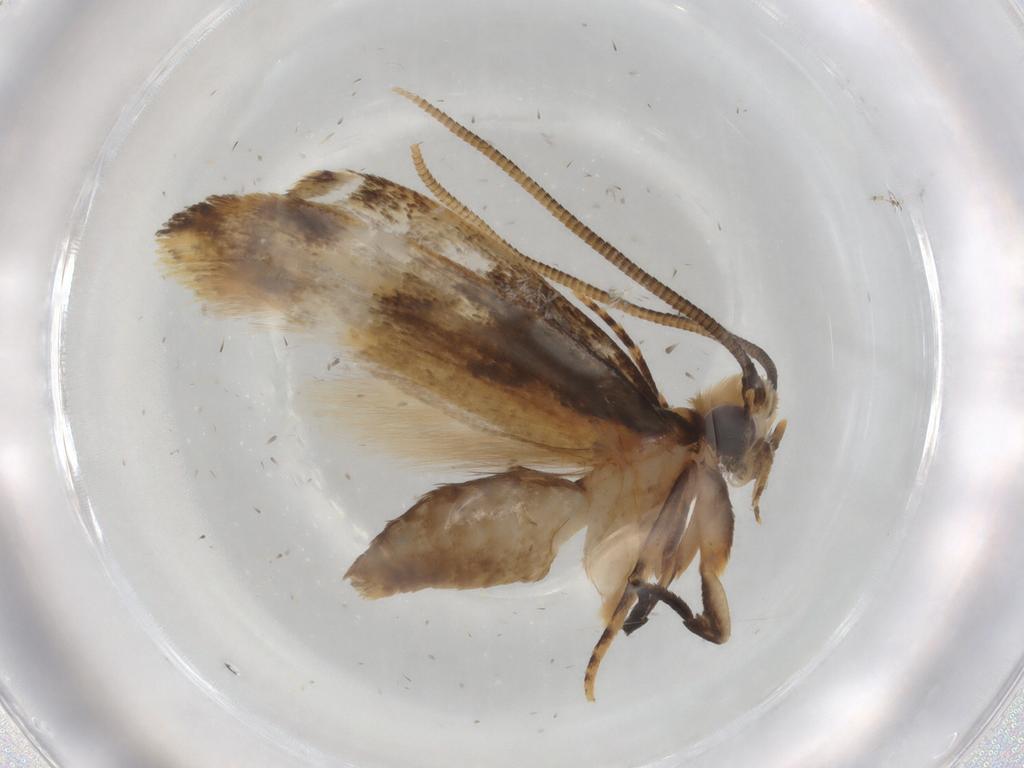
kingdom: Animalia
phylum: Arthropoda
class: Insecta
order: Lepidoptera
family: Tineidae
